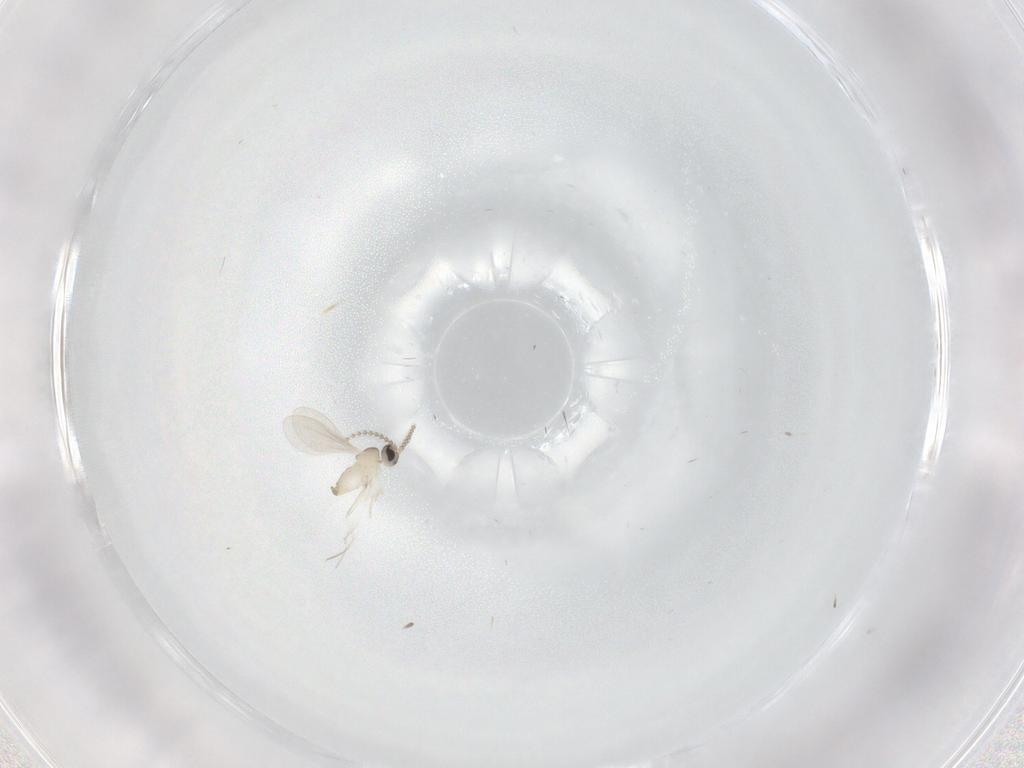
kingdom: Animalia
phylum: Arthropoda
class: Insecta
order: Diptera
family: Cecidomyiidae
